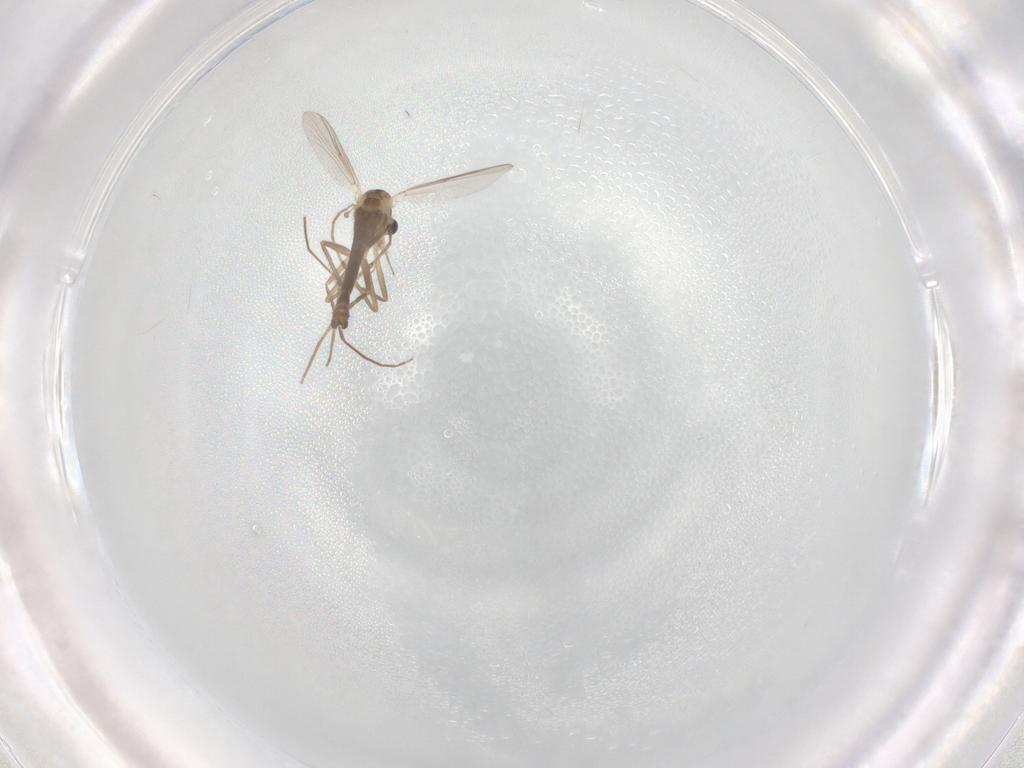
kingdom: Animalia
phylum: Arthropoda
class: Insecta
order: Diptera
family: Chironomidae
